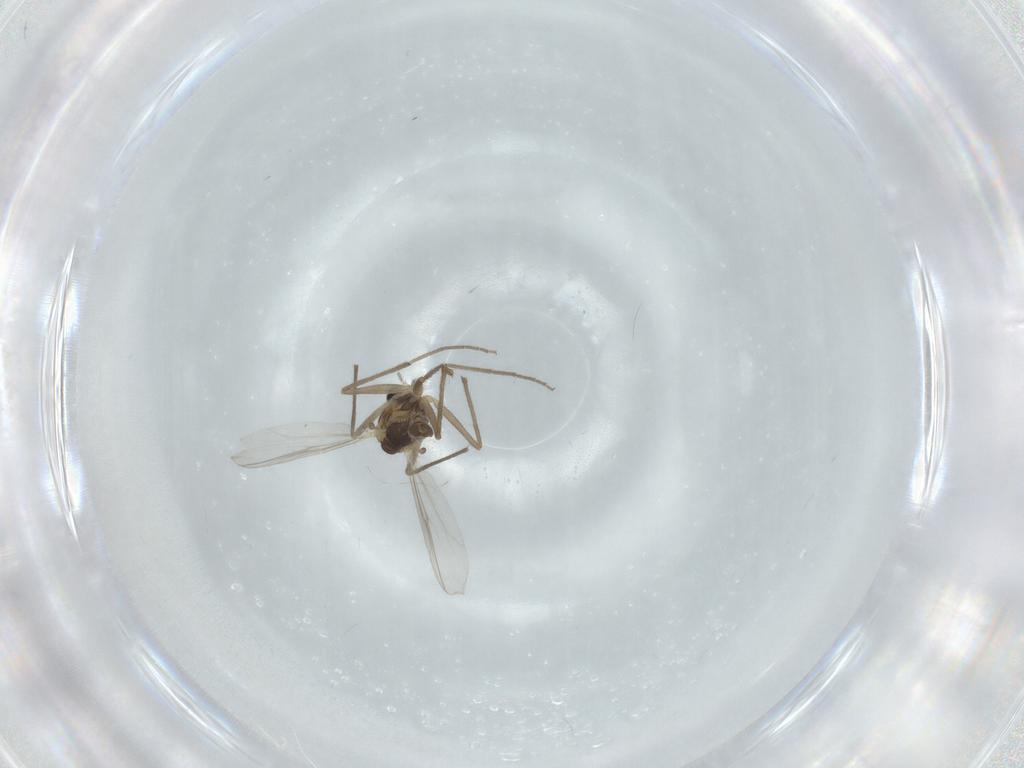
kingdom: Animalia
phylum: Arthropoda
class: Insecta
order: Diptera
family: Chironomidae
